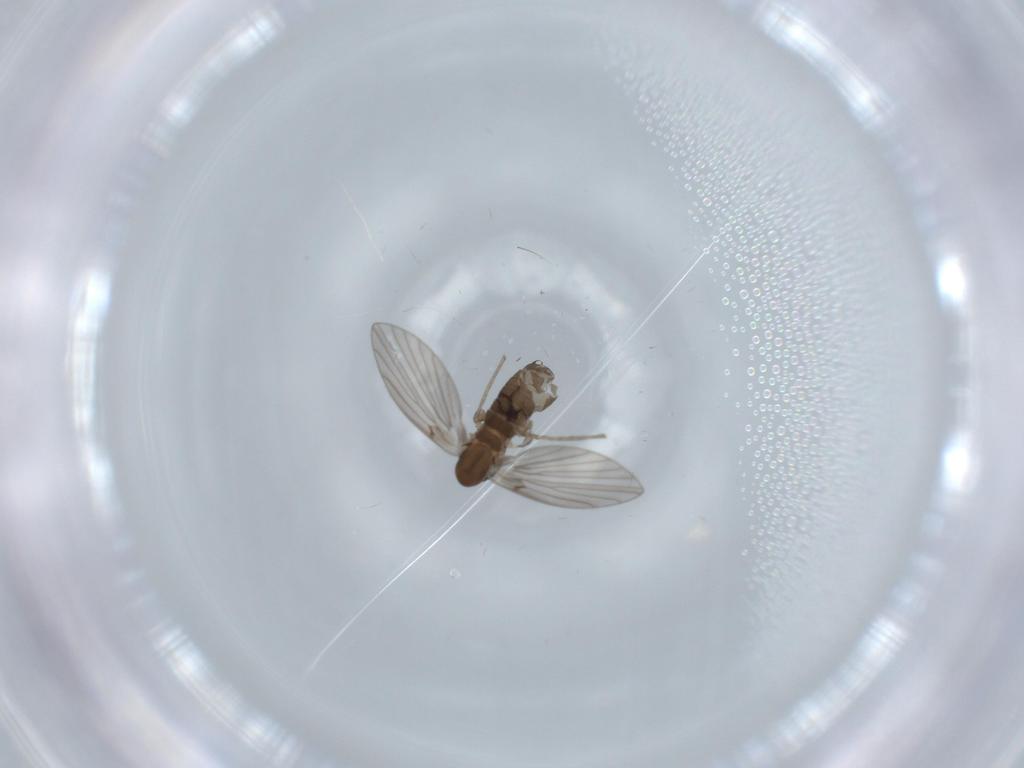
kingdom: Animalia
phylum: Arthropoda
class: Insecta
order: Diptera
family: Psychodidae
